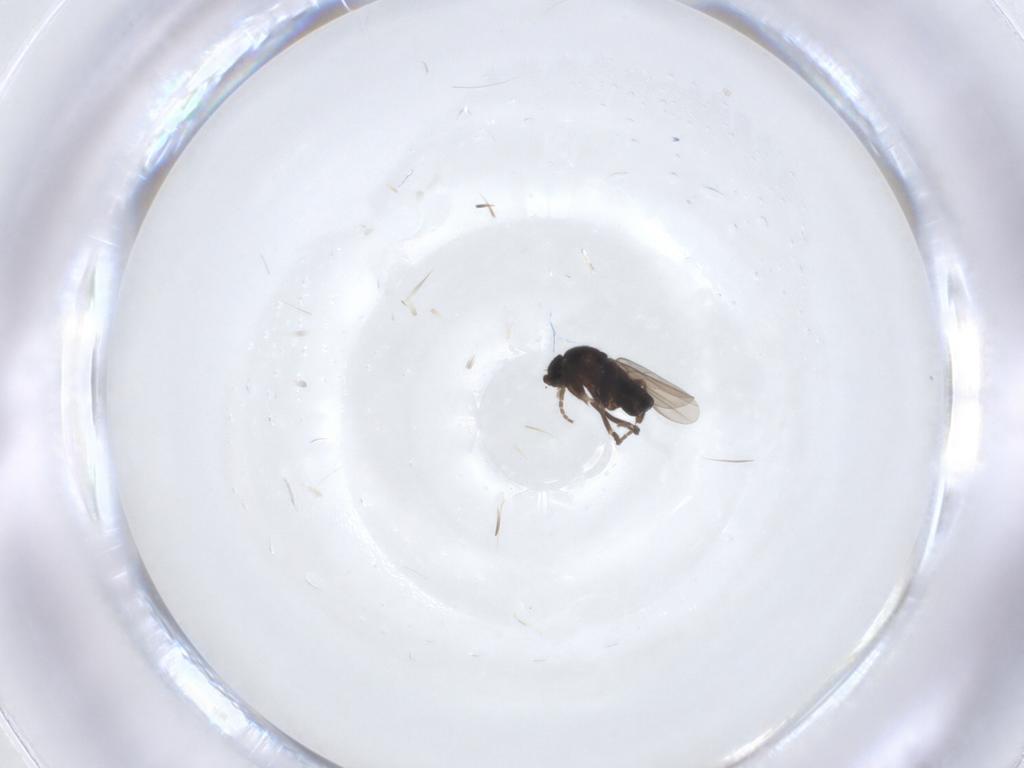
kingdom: Animalia
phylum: Arthropoda
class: Insecta
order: Diptera
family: Phoridae
